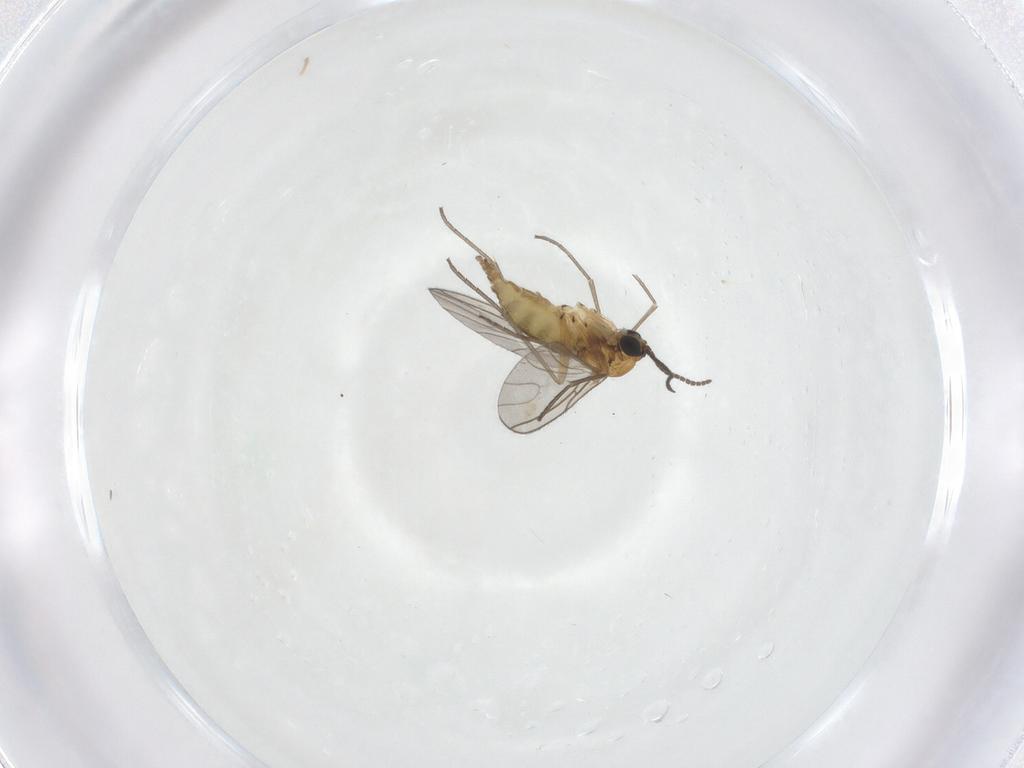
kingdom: Animalia
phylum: Arthropoda
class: Insecta
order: Diptera
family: Sciaridae
